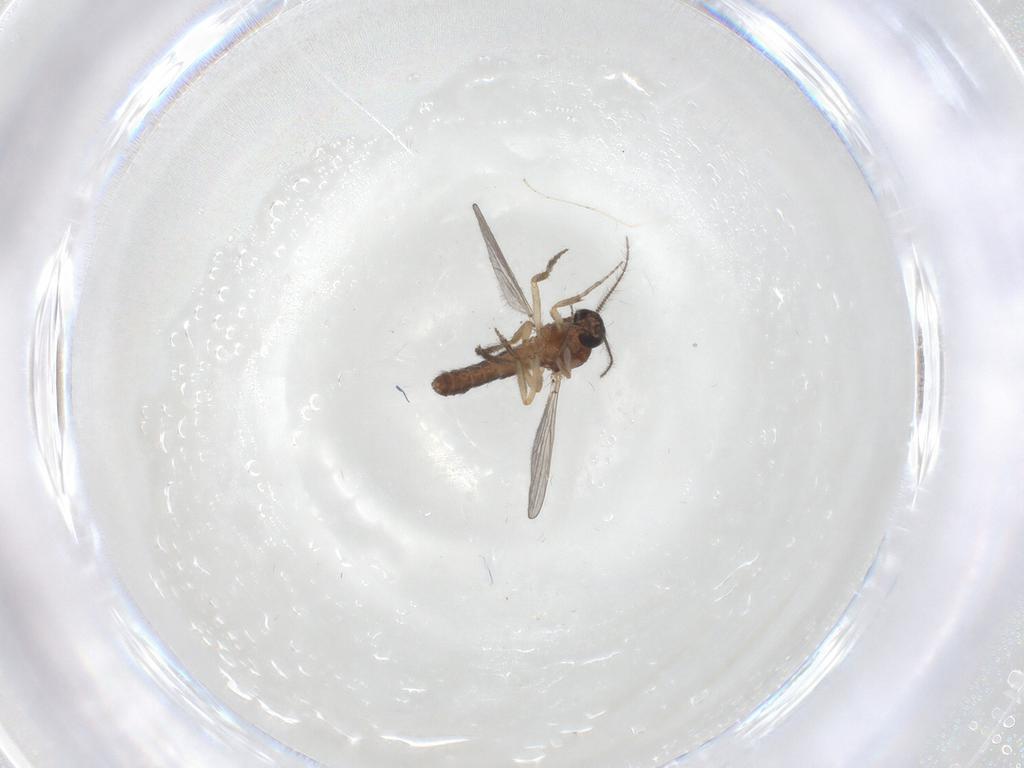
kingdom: Animalia
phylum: Arthropoda
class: Insecta
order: Diptera
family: Ceratopogonidae
